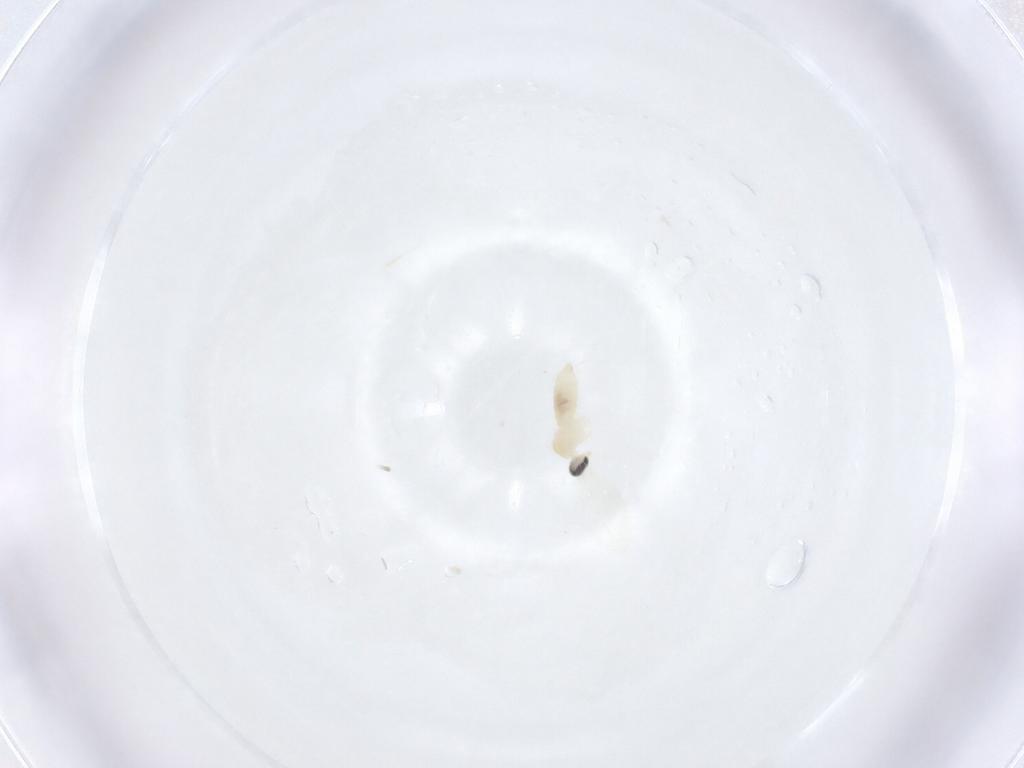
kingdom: Animalia
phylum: Arthropoda
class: Insecta
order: Diptera
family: Cecidomyiidae
